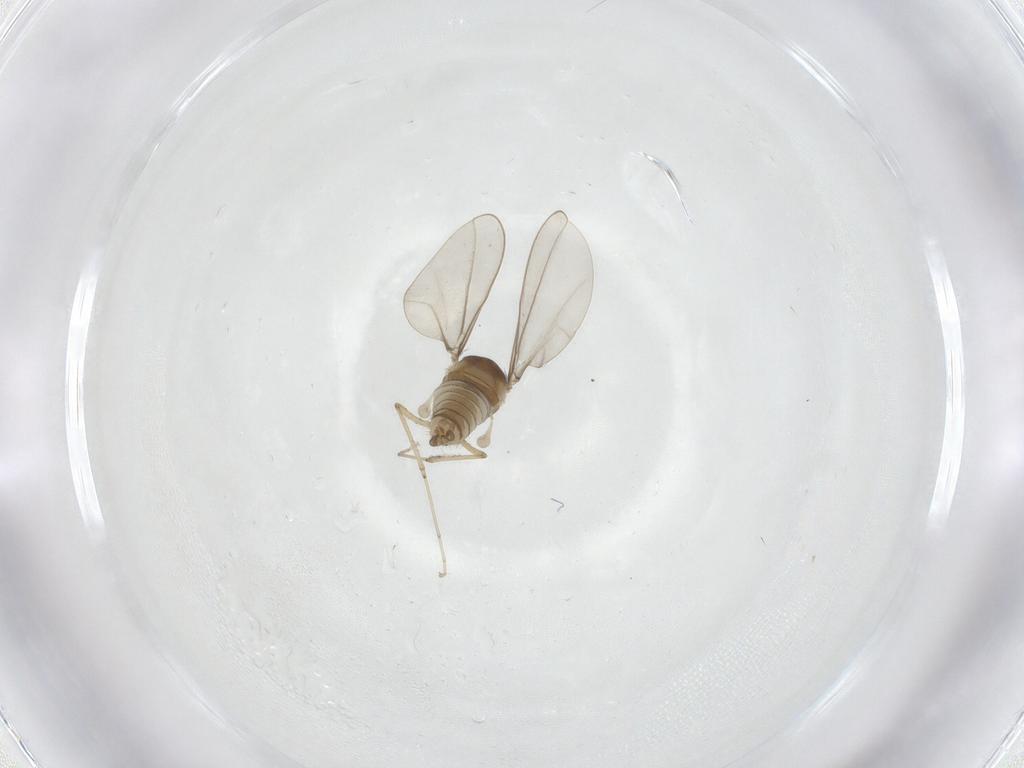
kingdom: Animalia
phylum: Arthropoda
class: Insecta
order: Diptera
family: Cecidomyiidae
